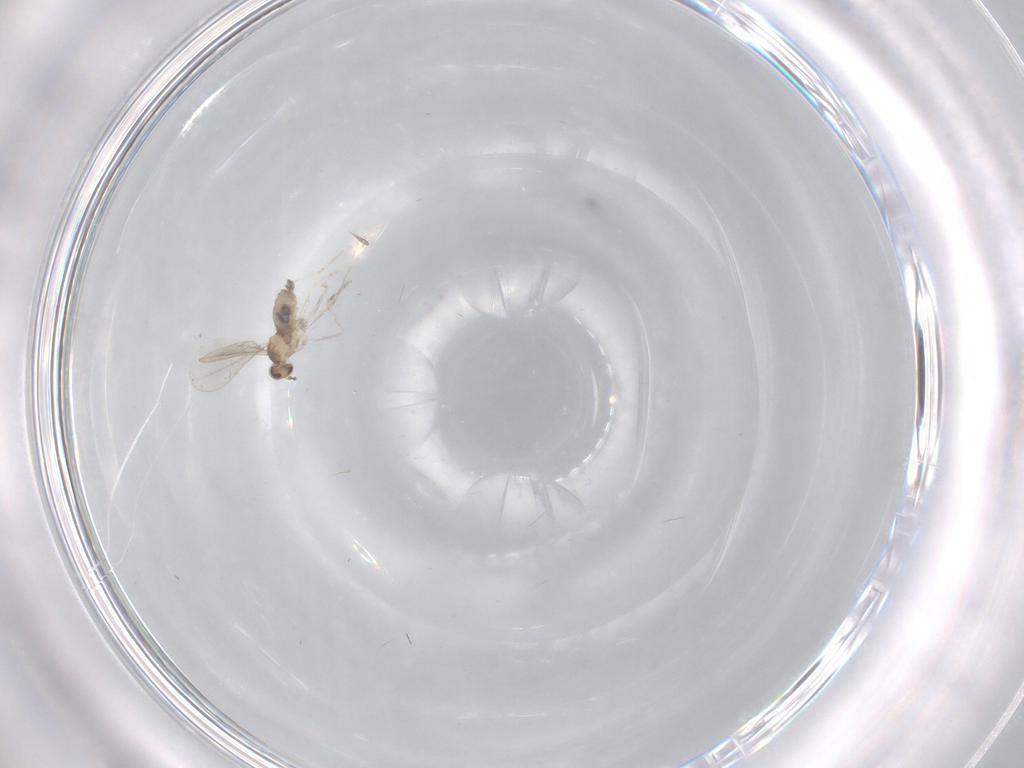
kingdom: Animalia
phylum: Arthropoda
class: Insecta
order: Diptera
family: Cecidomyiidae
